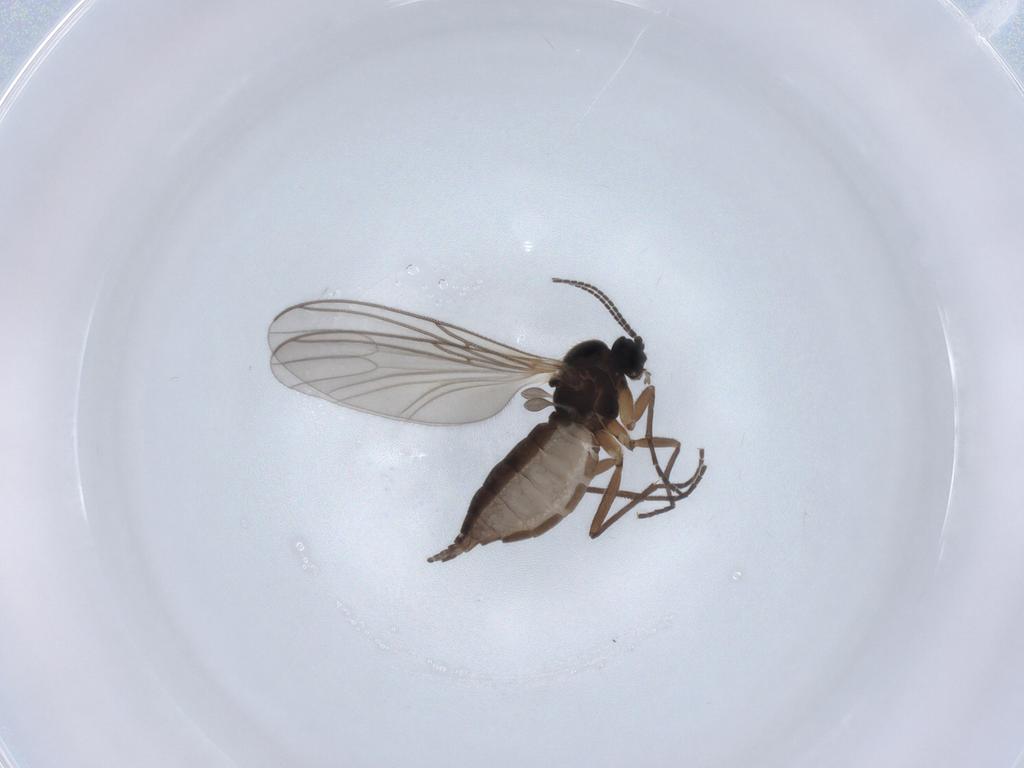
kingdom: Animalia
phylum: Arthropoda
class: Insecta
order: Diptera
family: Sciaridae
